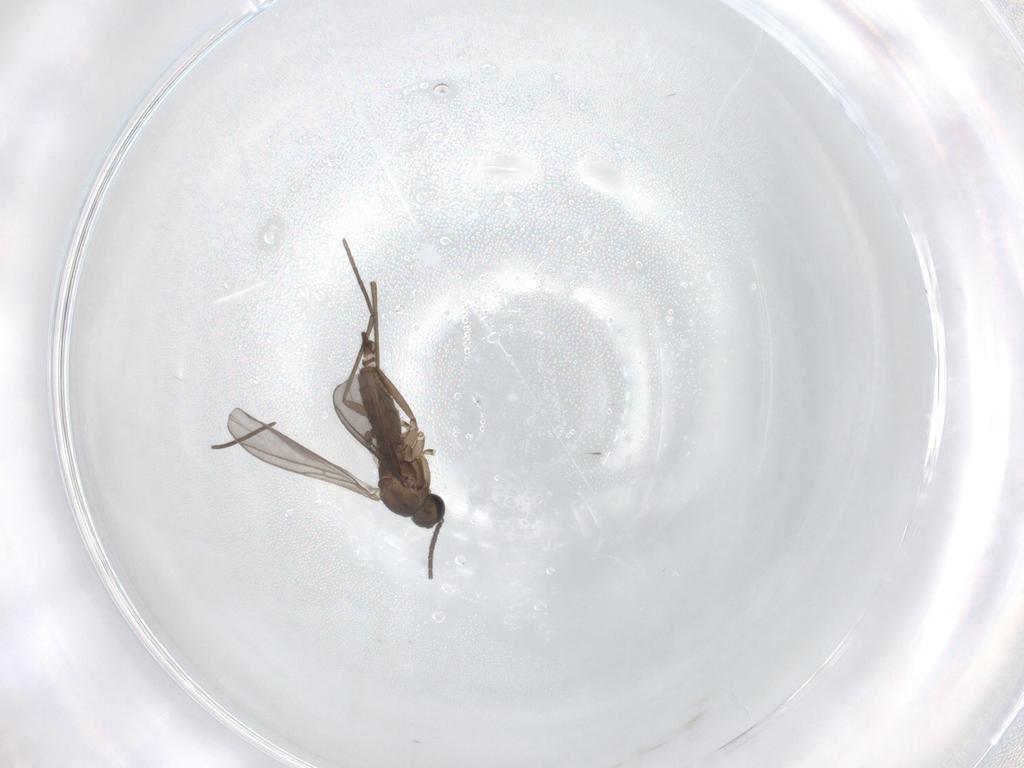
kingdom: Animalia
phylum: Arthropoda
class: Insecta
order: Diptera
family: Sciaridae
